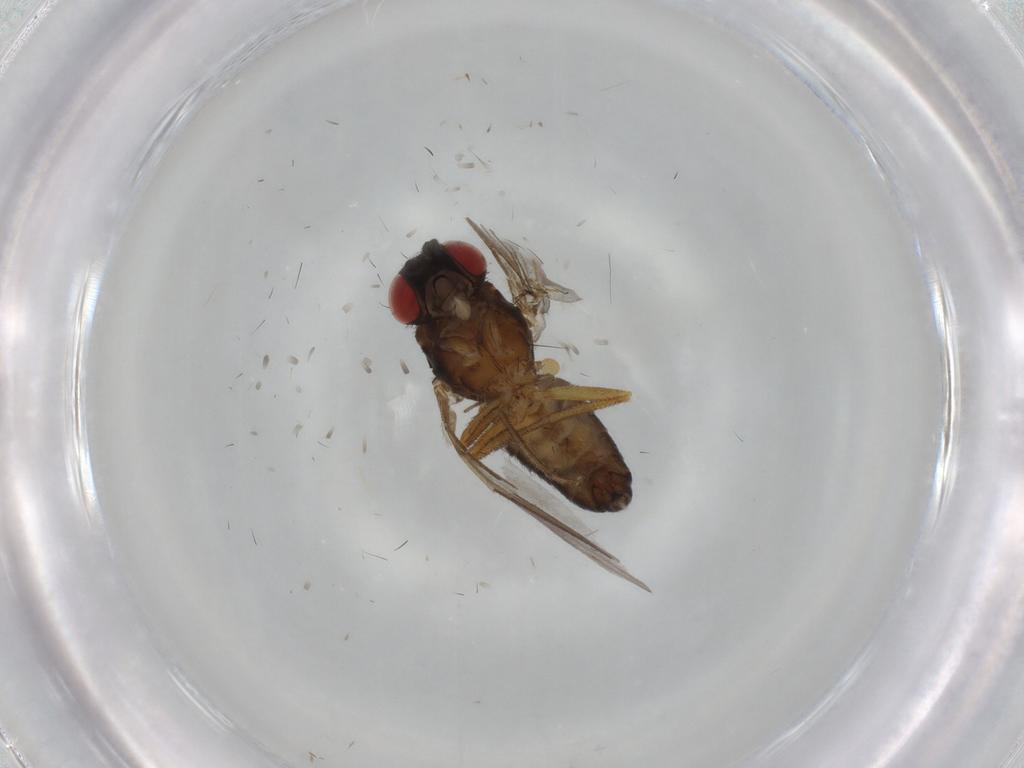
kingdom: Animalia
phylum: Arthropoda
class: Insecta
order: Diptera
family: Drosophilidae
